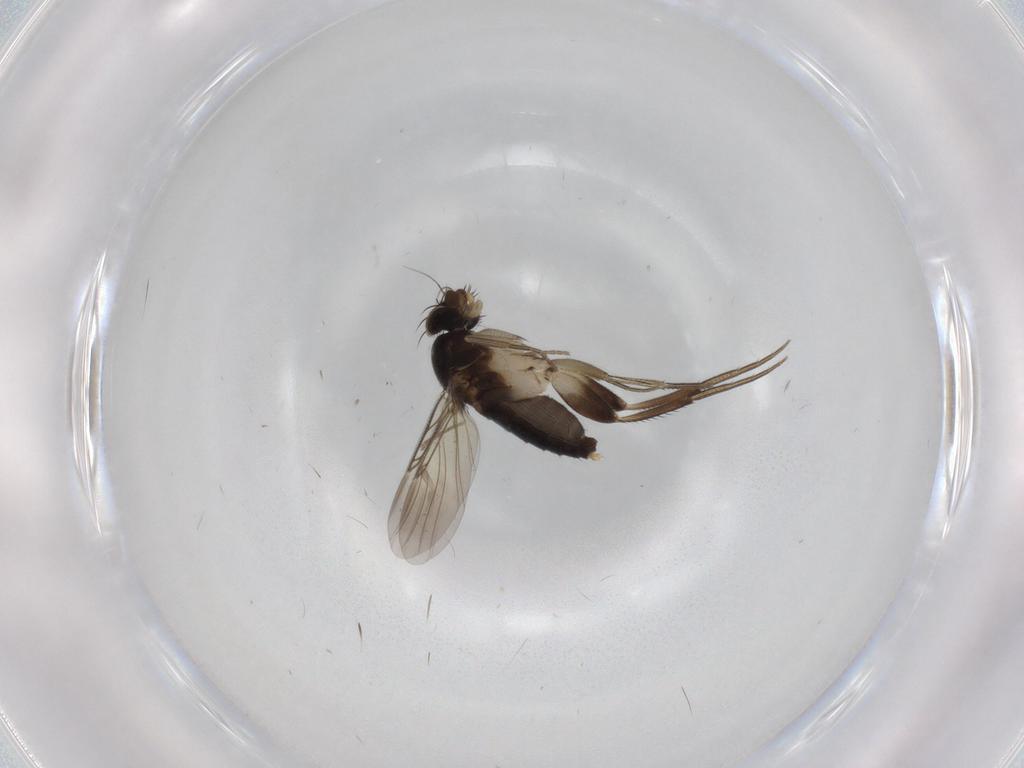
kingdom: Animalia
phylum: Arthropoda
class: Insecta
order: Diptera
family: Phoridae
